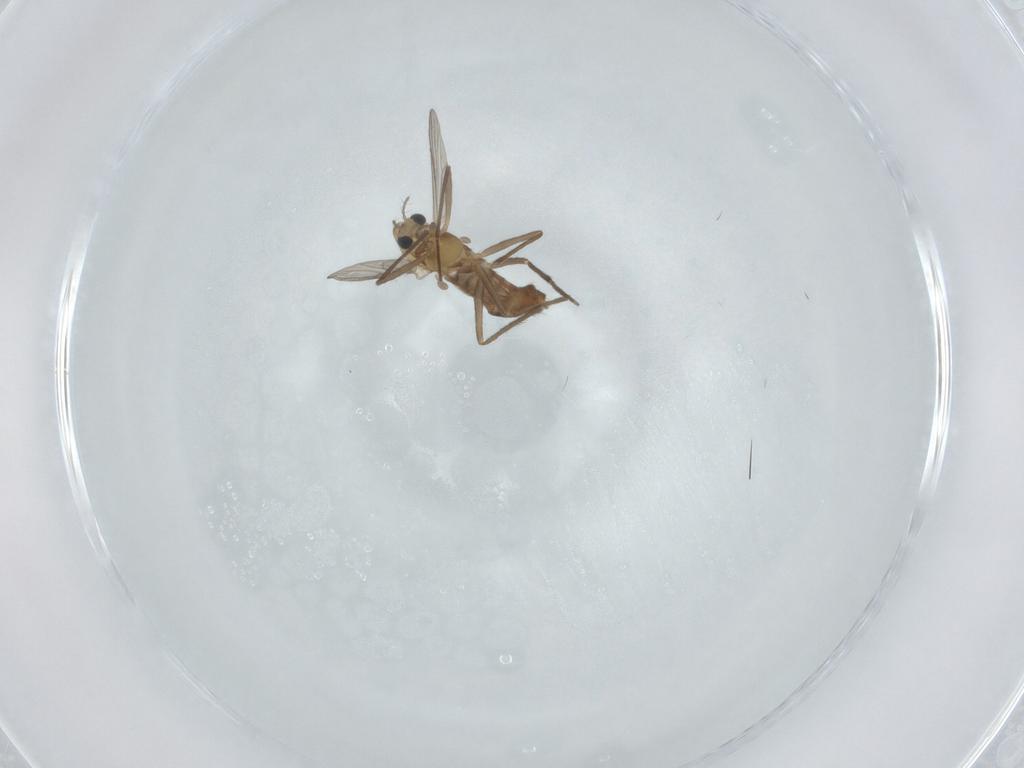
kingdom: Animalia
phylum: Arthropoda
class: Insecta
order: Diptera
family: Chironomidae
